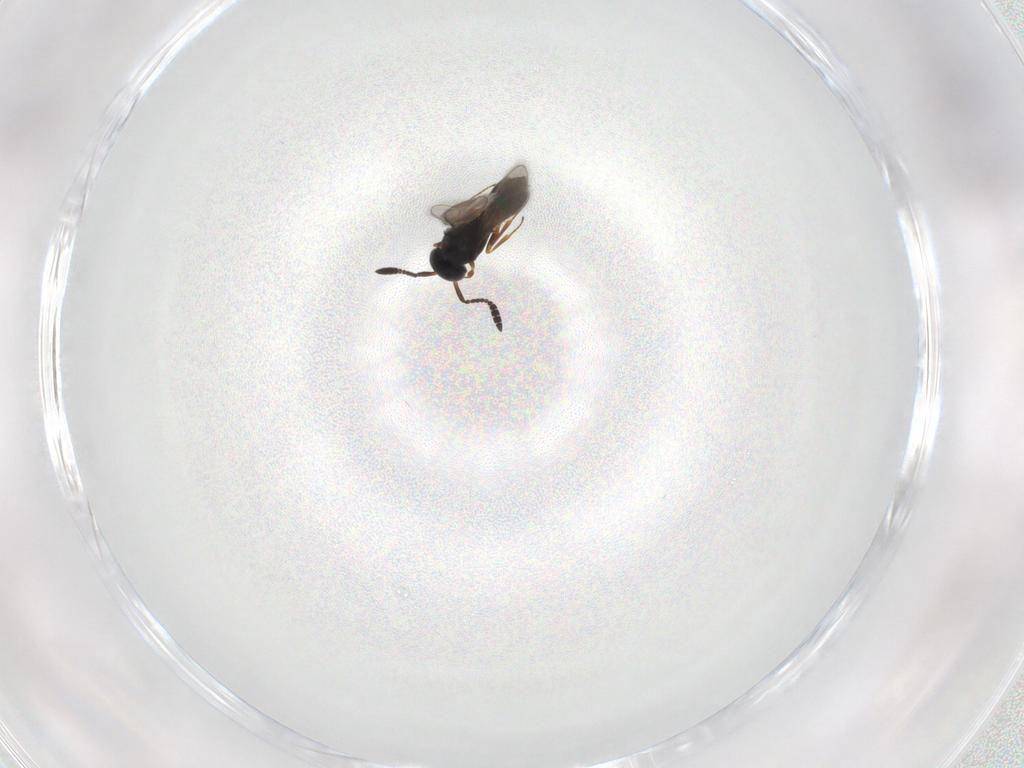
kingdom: Animalia
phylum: Arthropoda
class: Insecta
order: Hymenoptera
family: Scelionidae
